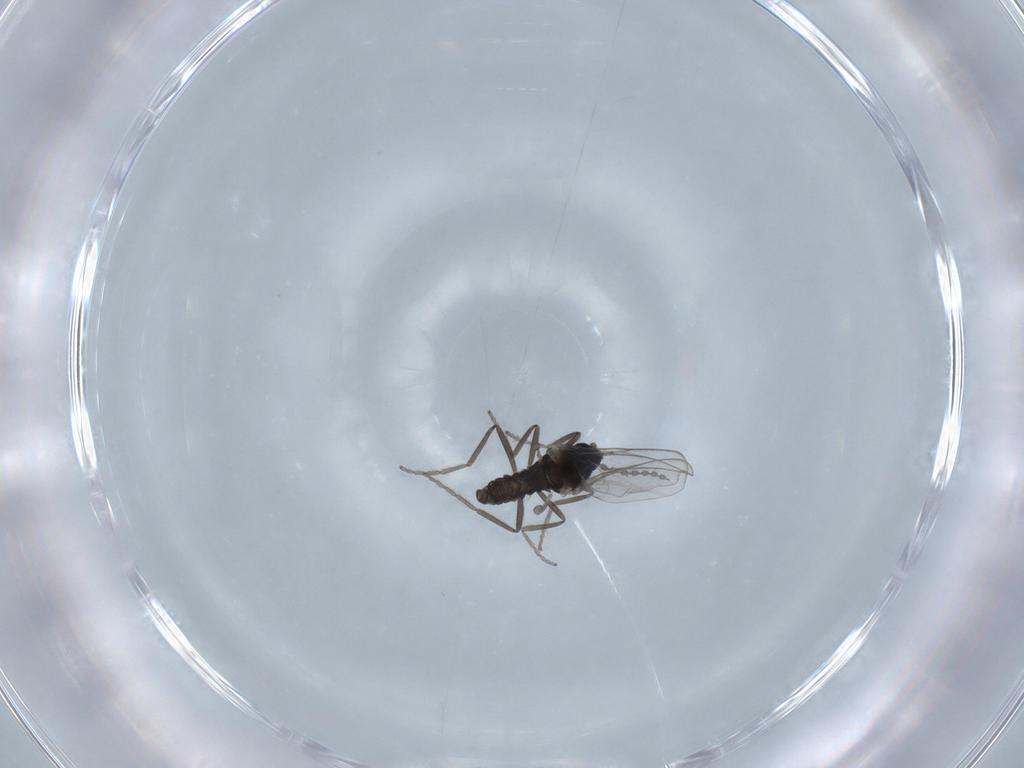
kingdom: Animalia
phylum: Arthropoda
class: Insecta
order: Diptera
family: Cecidomyiidae
